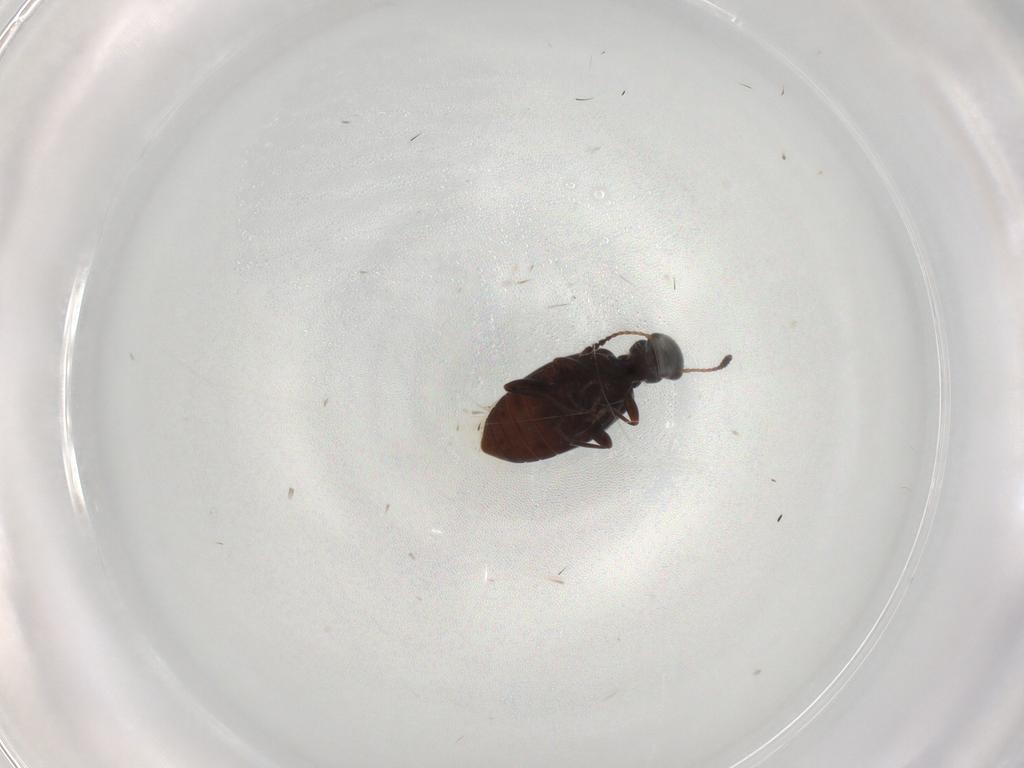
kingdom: Animalia
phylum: Arthropoda
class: Insecta
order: Coleoptera
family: Anthicidae
